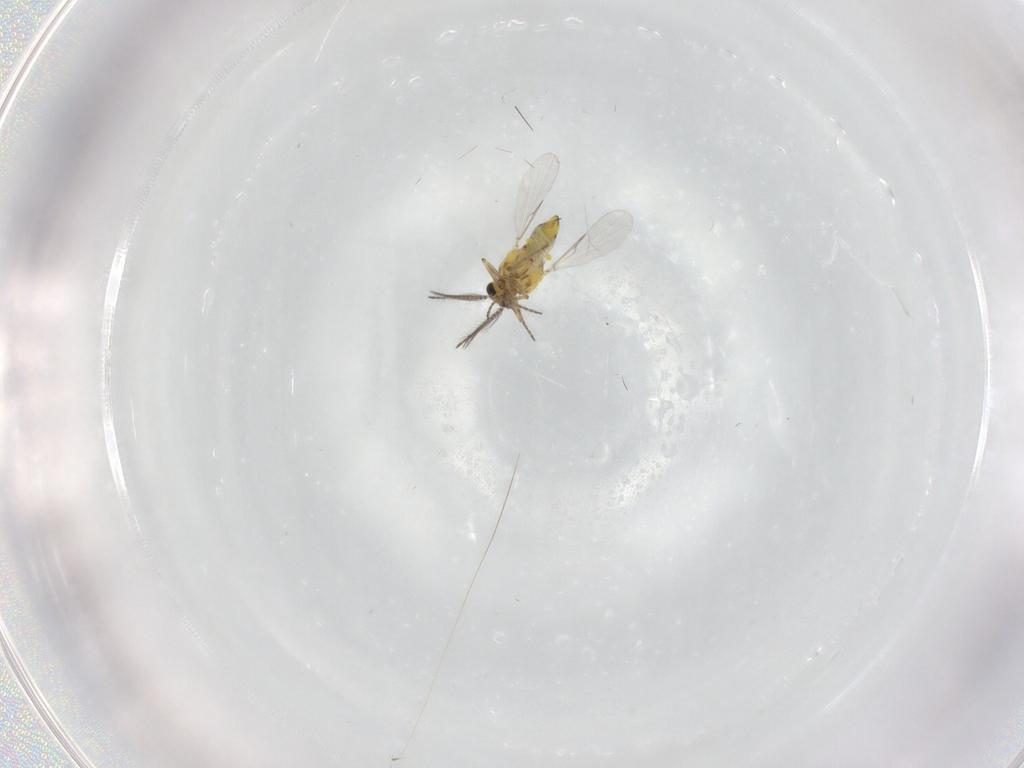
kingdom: Animalia
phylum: Arthropoda
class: Insecta
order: Diptera
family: Ceratopogonidae
